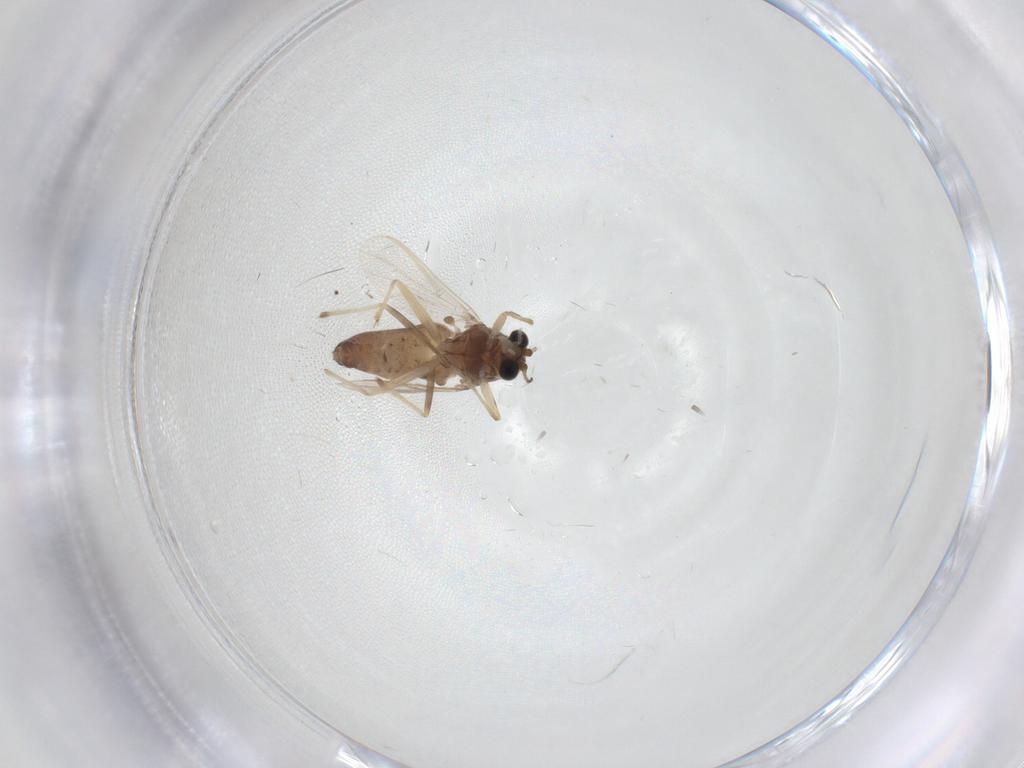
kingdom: Animalia
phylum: Arthropoda
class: Insecta
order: Diptera
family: Chironomidae
